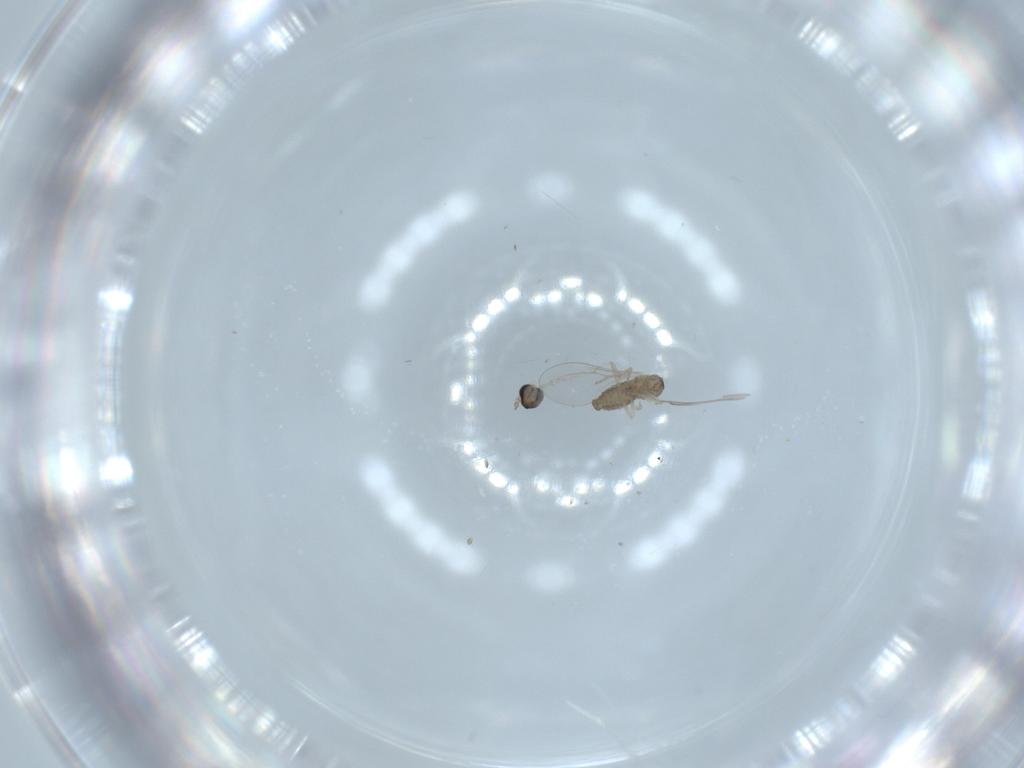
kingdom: Animalia
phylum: Arthropoda
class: Insecta
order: Diptera
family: Cecidomyiidae
